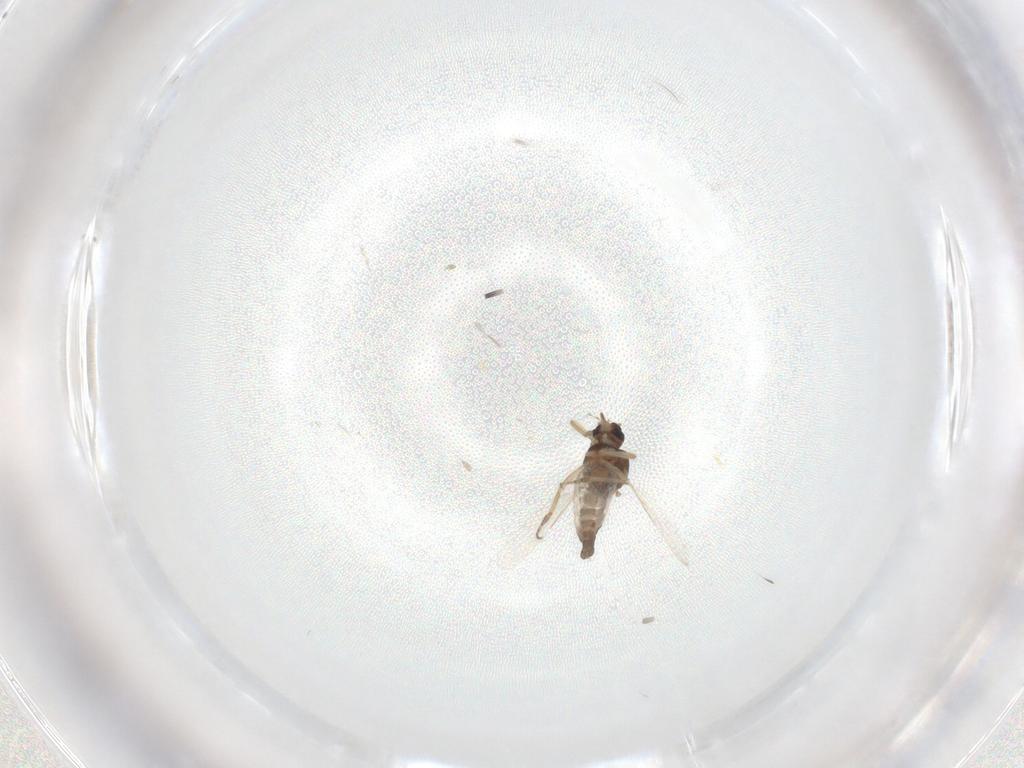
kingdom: Animalia
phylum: Arthropoda
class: Insecta
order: Diptera
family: Ceratopogonidae
